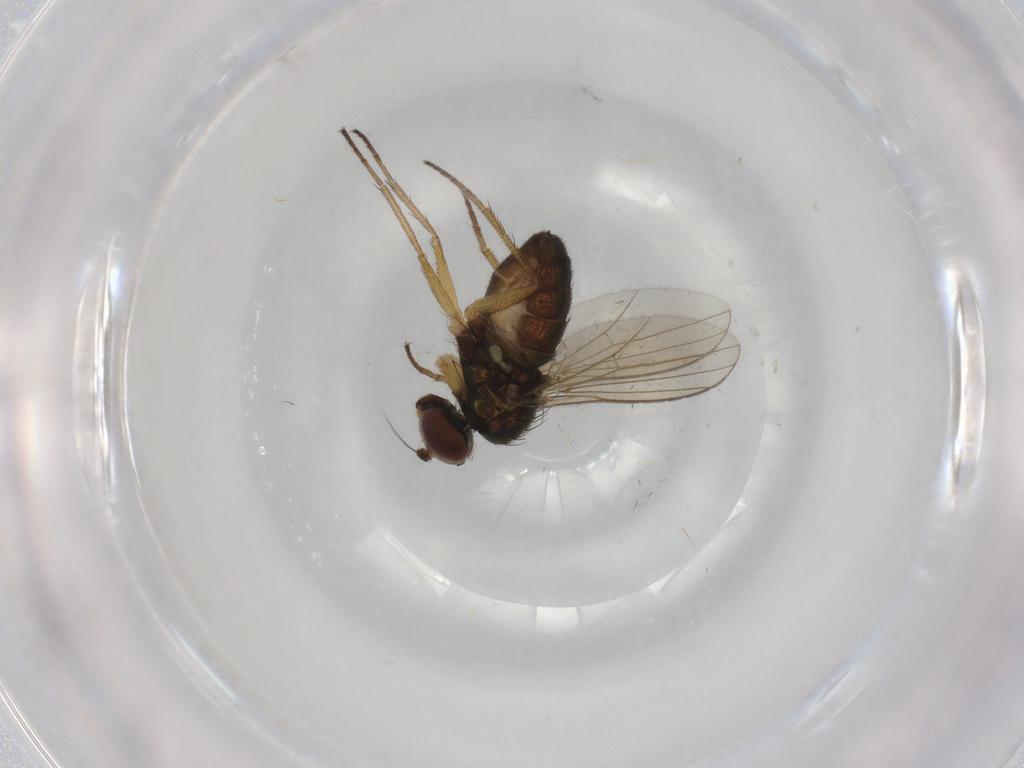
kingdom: Animalia
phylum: Arthropoda
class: Insecta
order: Diptera
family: Dolichopodidae
